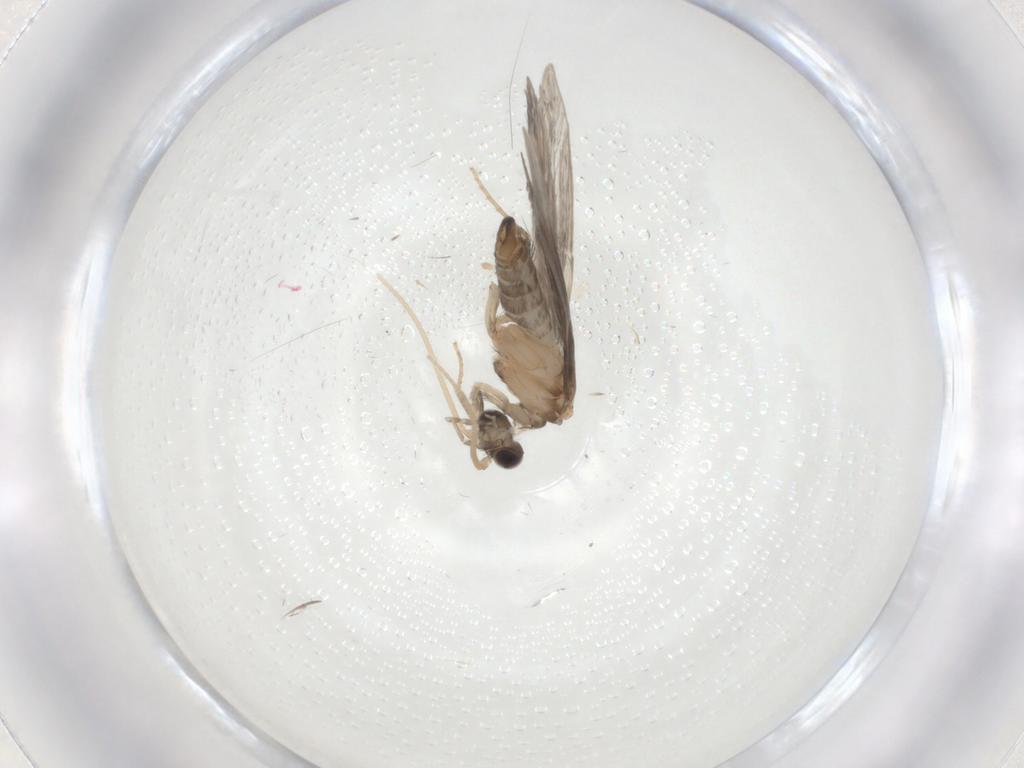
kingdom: Animalia
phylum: Arthropoda
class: Insecta
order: Trichoptera
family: Hydroptilidae
